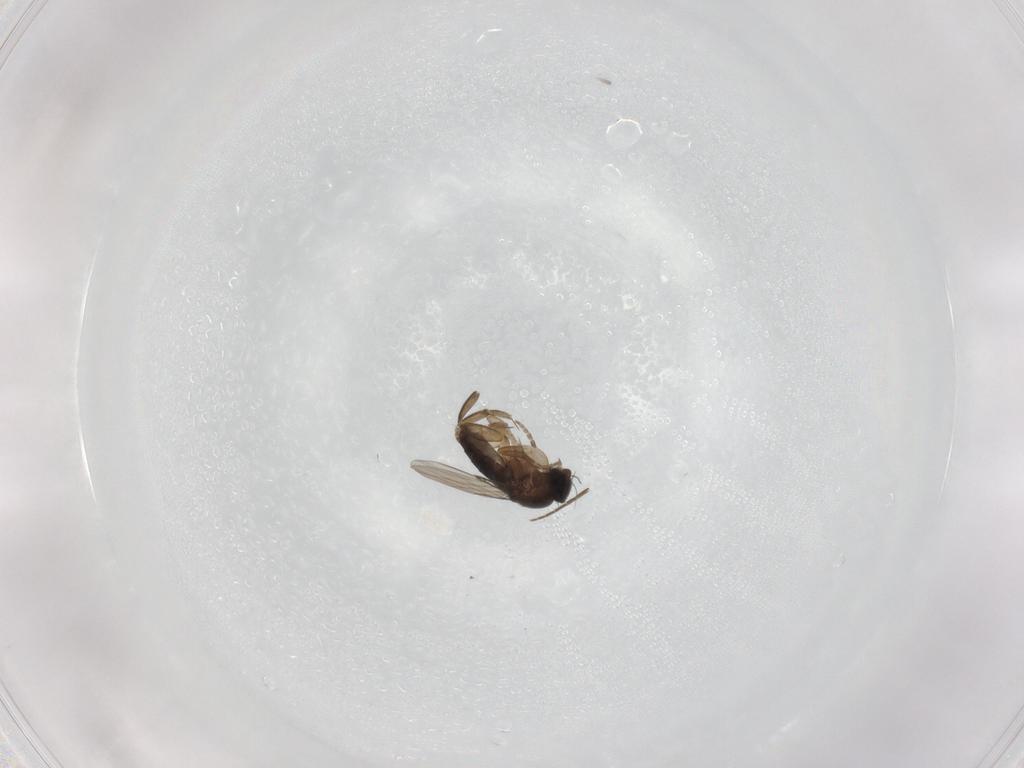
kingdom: Animalia
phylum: Arthropoda
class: Insecta
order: Diptera
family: Phoridae
